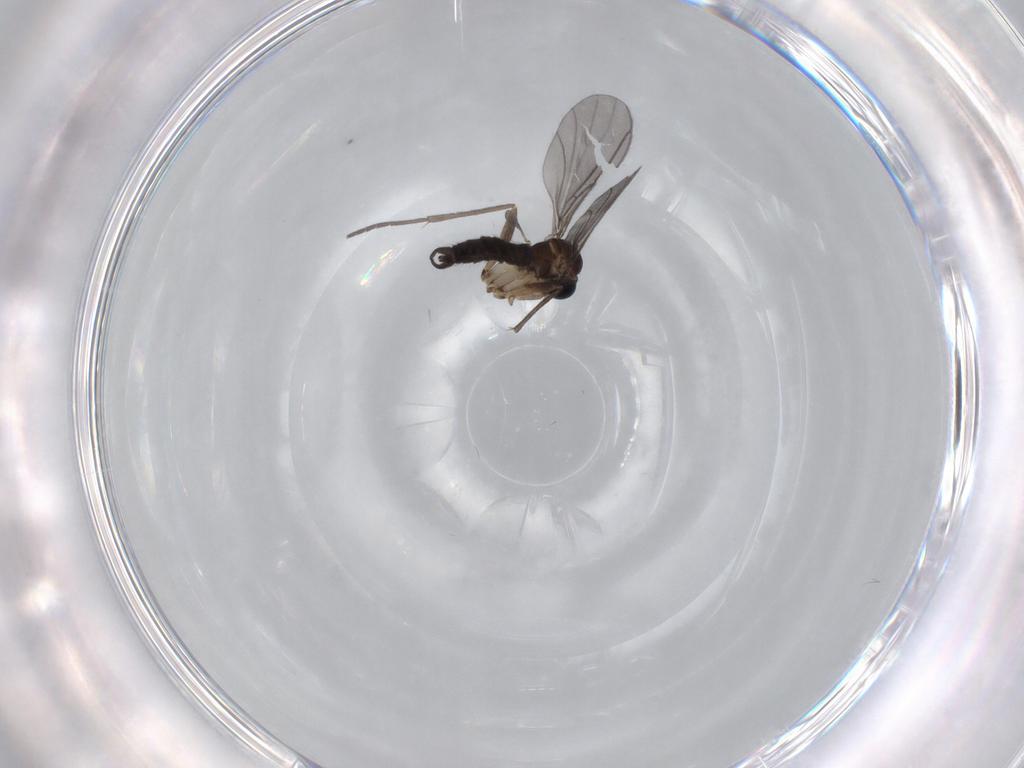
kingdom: Animalia
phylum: Arthropoda
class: Insecta
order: Diptera
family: Sciaridae
